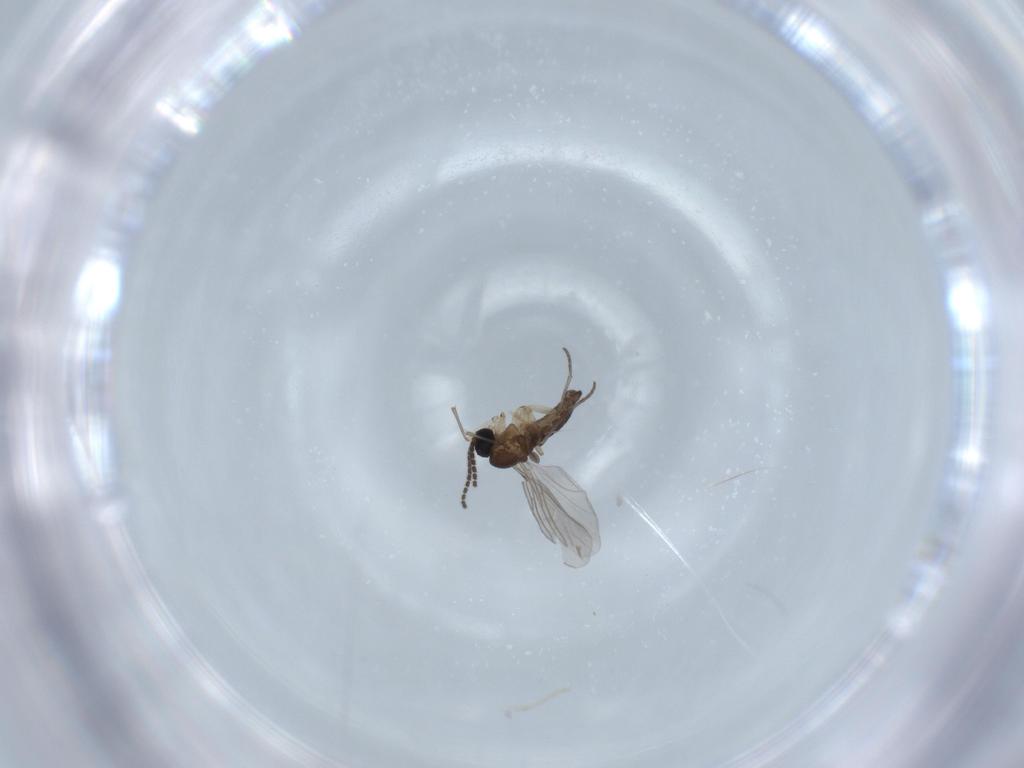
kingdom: Animalia
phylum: Arthropoda
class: Insecta
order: Diptera
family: Sciaridae
